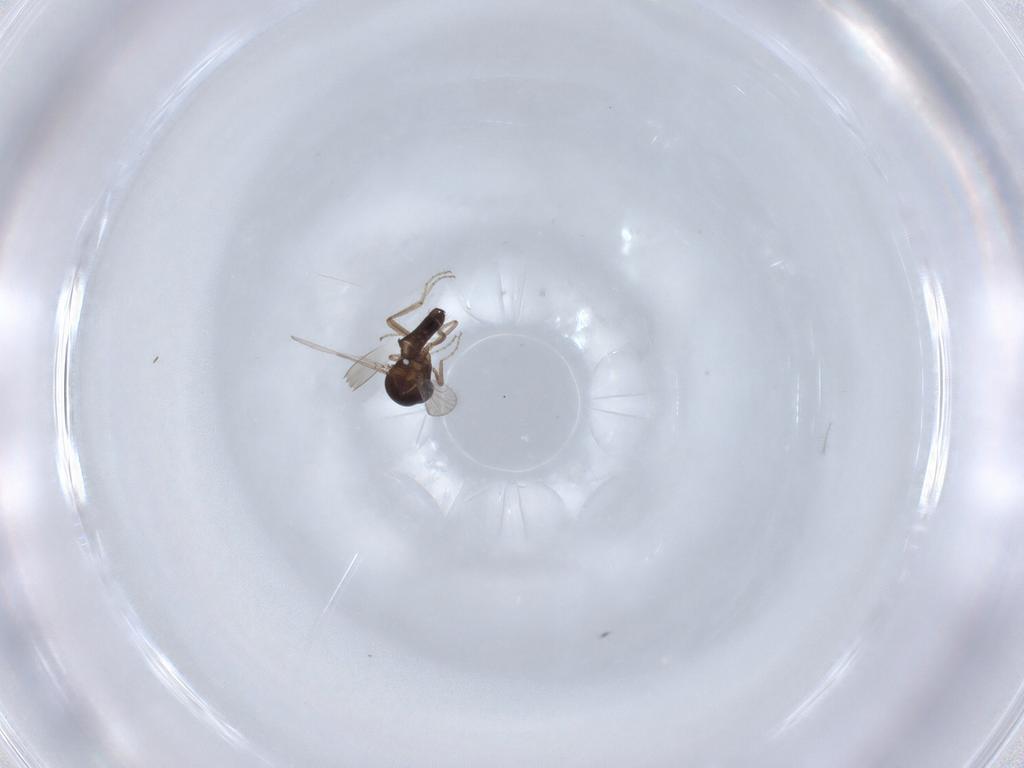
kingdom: Animalia
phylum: Arthropoda
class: Insecta
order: Diptera
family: Ceratopogonidae
